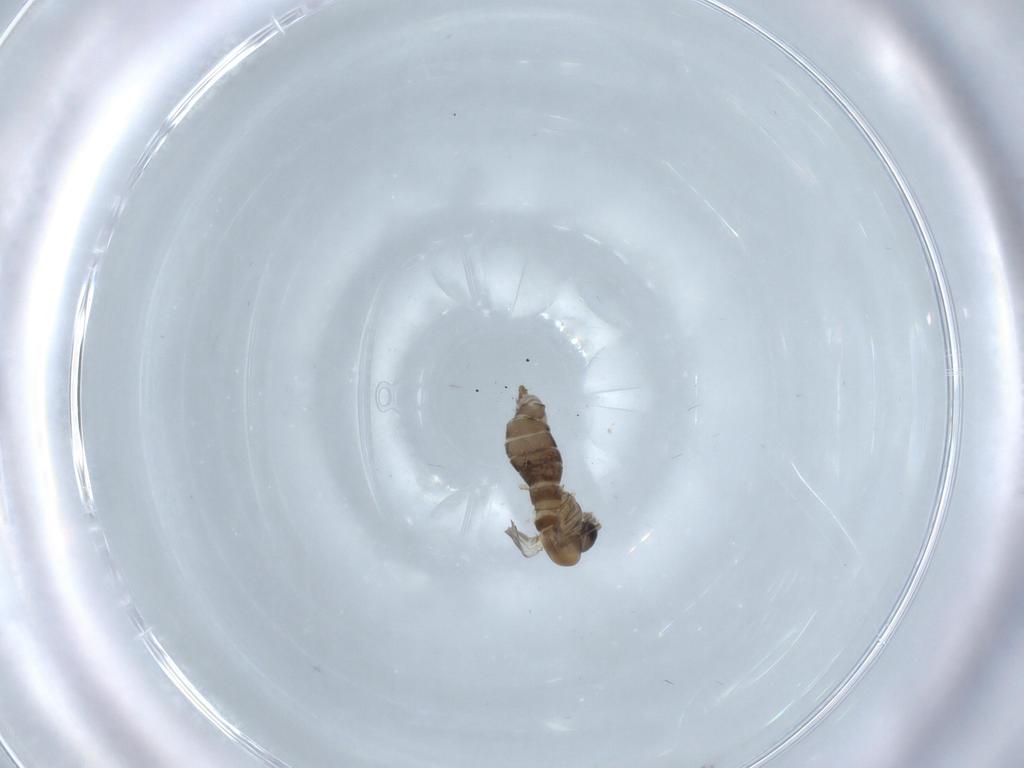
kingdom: Animalia
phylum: Arthropoda
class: Insecta
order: Diptera
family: Psychodidae
